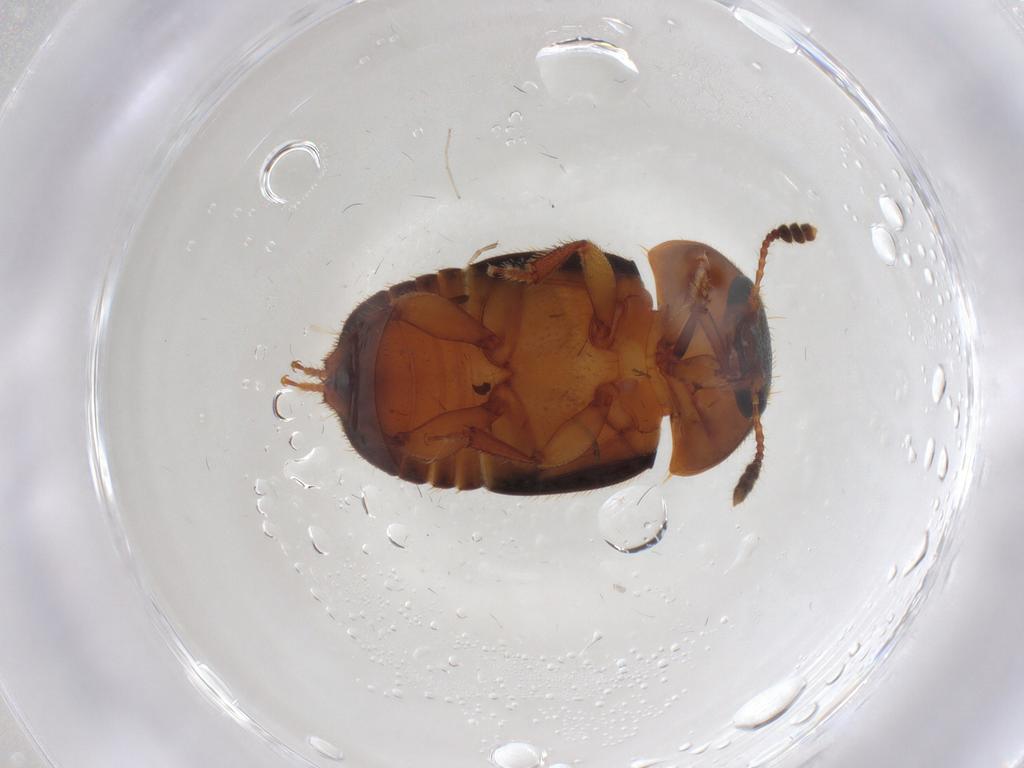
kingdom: Animalia
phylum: Arthropoda
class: Insecta
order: Coleoptera
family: Nitidulidae
